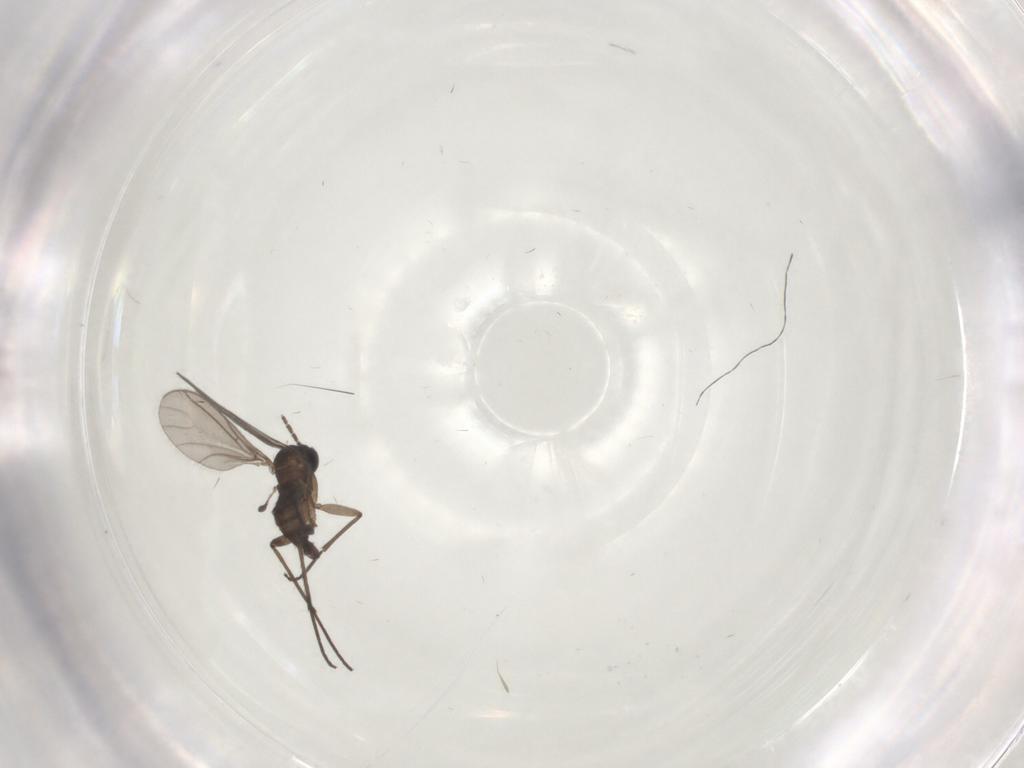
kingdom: Animalia
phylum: Arthropoda
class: Insecta
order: Diptera
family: Sciaridae
